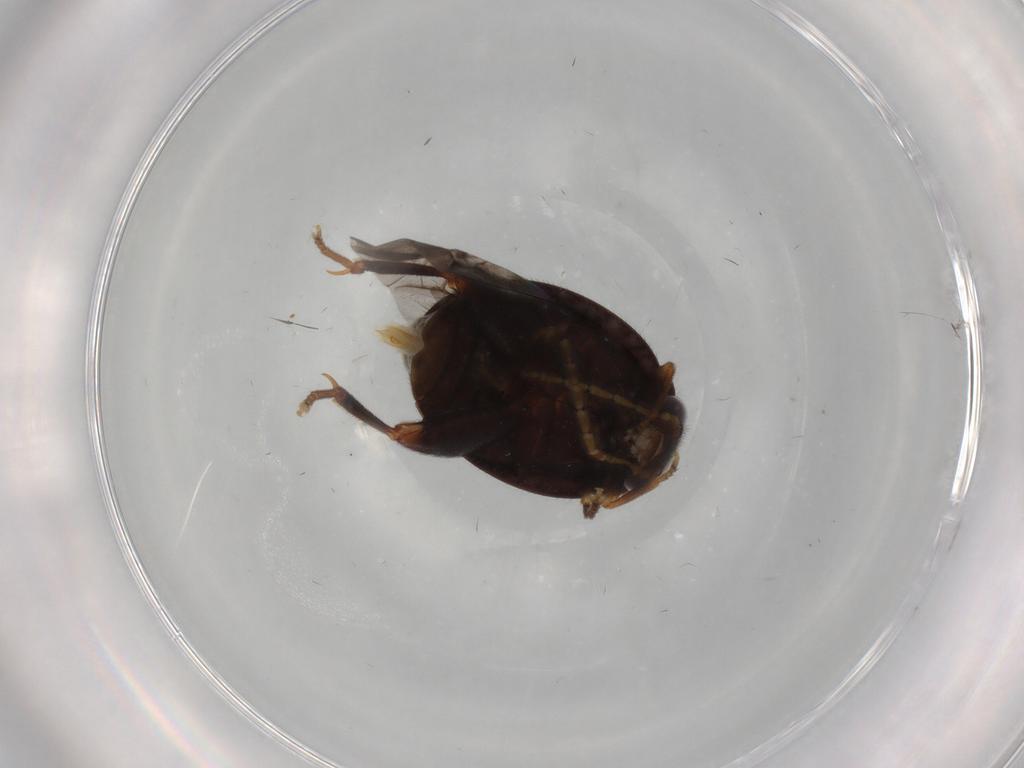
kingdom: Animalia
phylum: Arthropoda
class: Insecta
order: Coleoptera
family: Scirtidae
